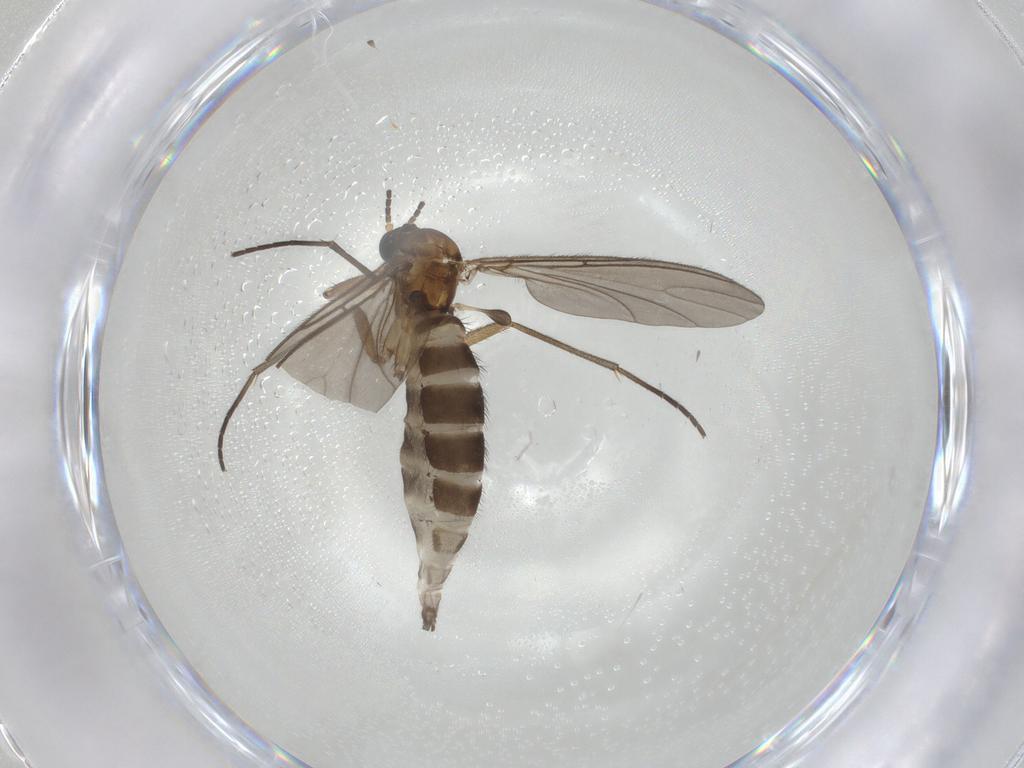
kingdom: Animalia
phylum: Arthropoda
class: Insecta
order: Diptera
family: Sciaridae
